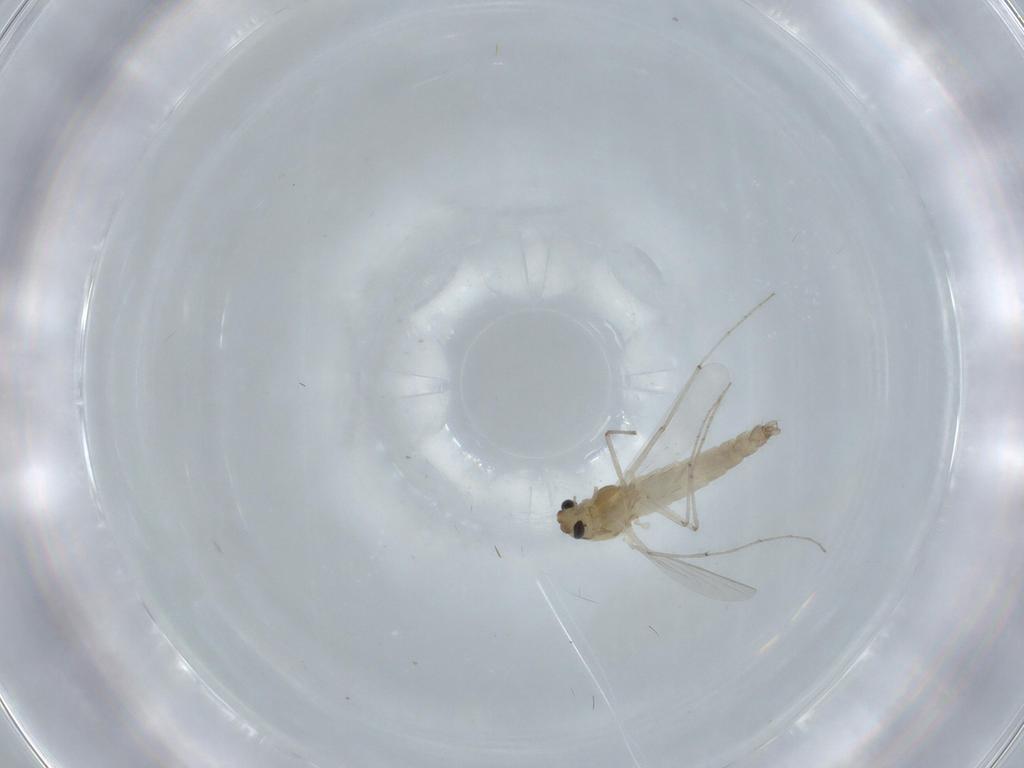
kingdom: Animalia
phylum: Arthropoda
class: Insecta
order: Diptera
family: Chironomidae
